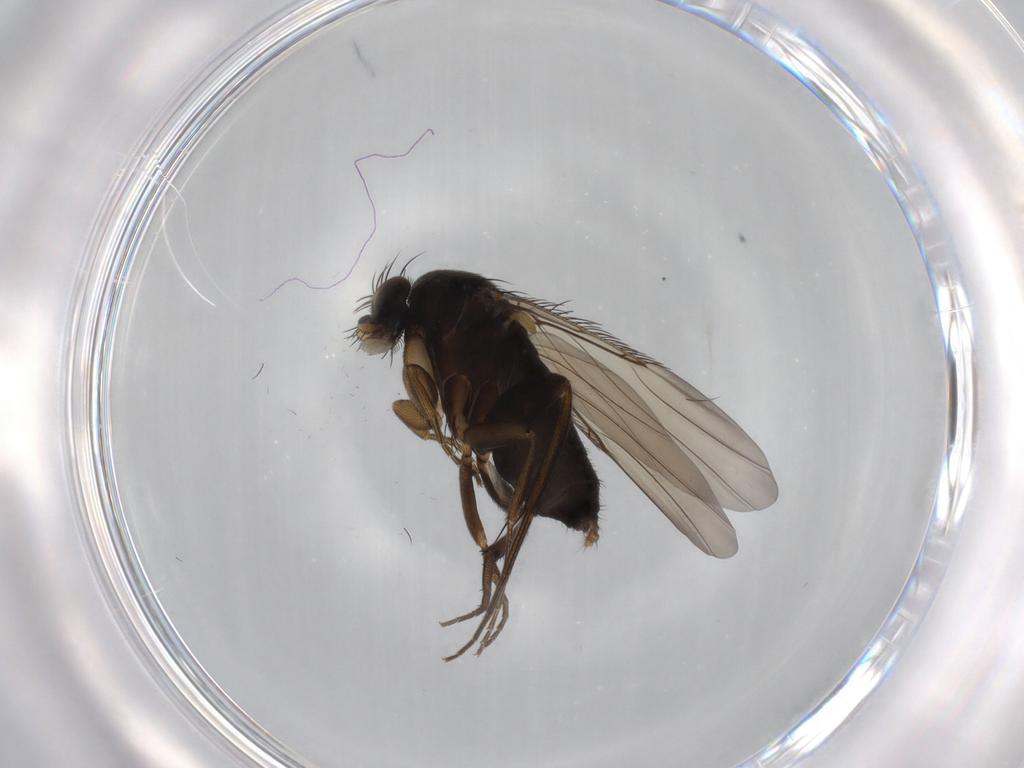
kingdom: Animalia
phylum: Arthropoda
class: Insecta
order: Diptera
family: Phoridae
